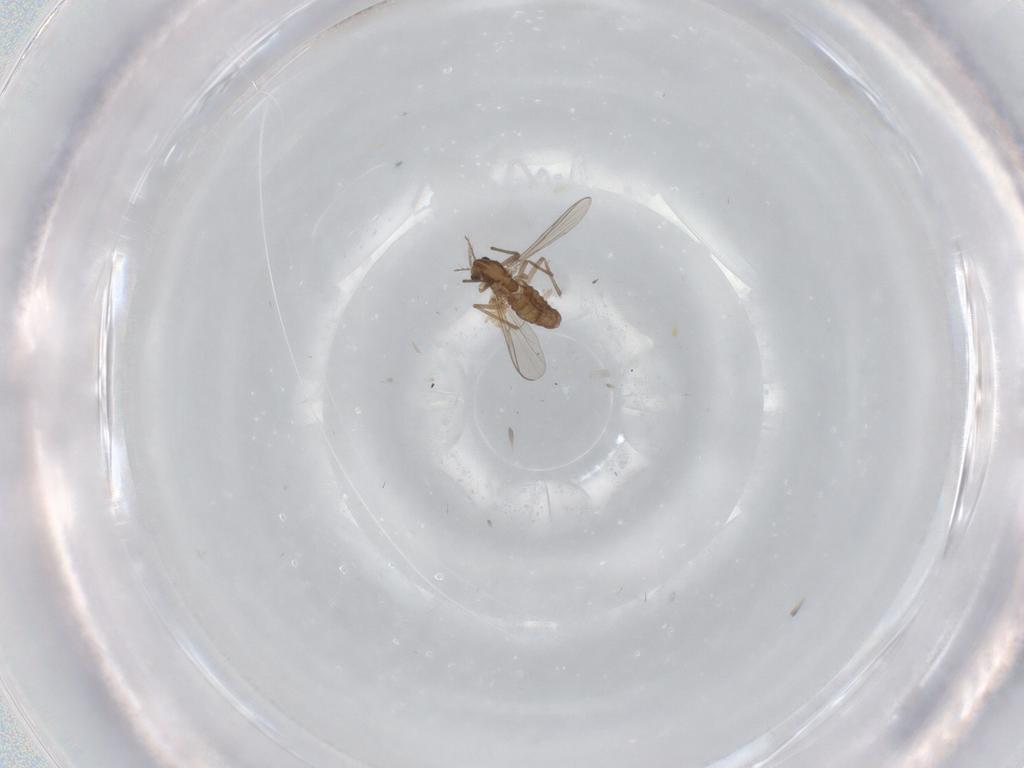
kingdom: Animalia
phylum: Arthropoda
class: Insecta
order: Diptera
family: Chironomidae
